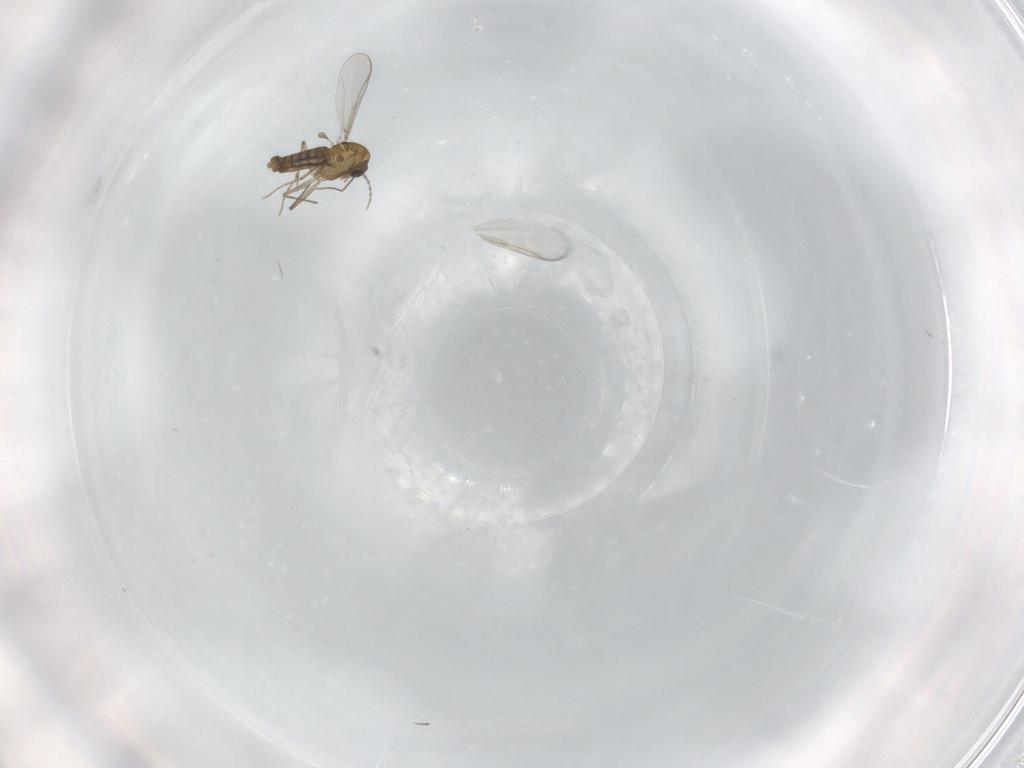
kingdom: Animalia
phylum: Arthropoda
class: Insecta
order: Diptera
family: Chironomidae
